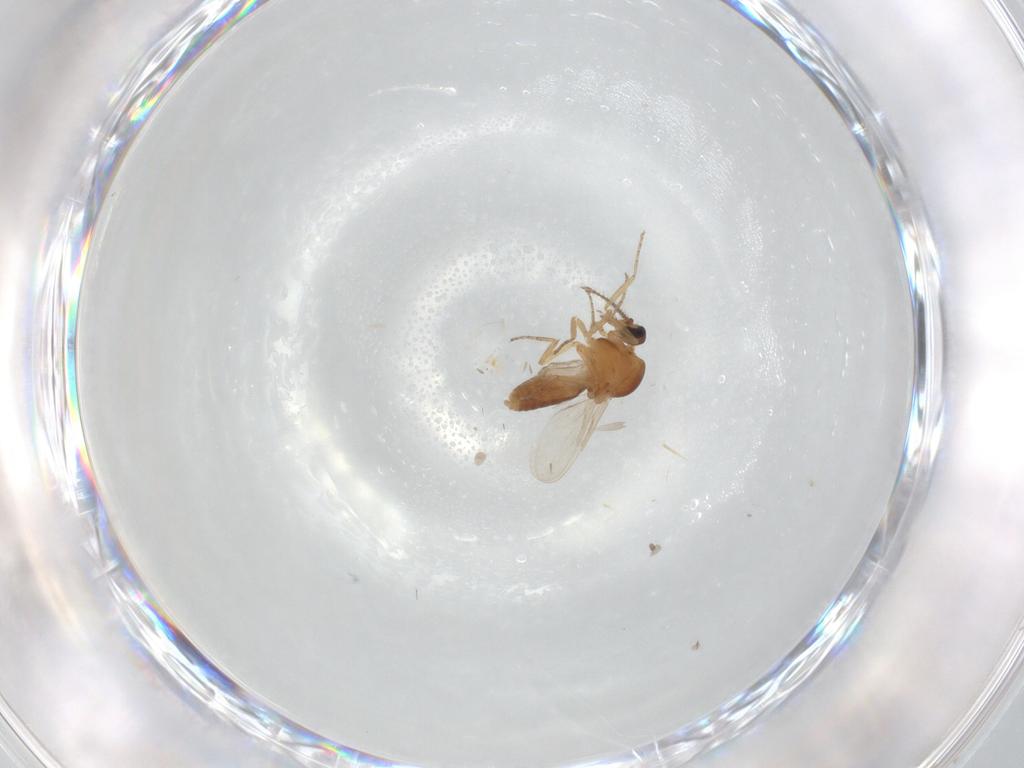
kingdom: Animalia
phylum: Arthropoda
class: Insecta
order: Diptera
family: Ceratopogonidae
